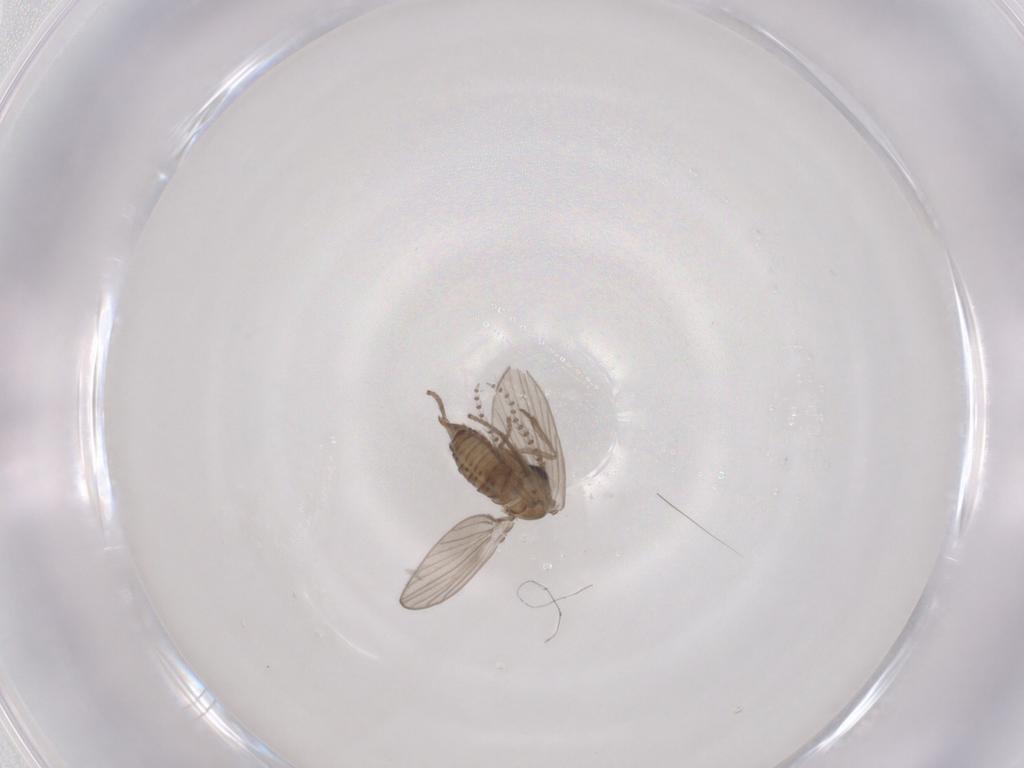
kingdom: Animalia
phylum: Arthropoda
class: Insecta
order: Diptera
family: Psychodidae
